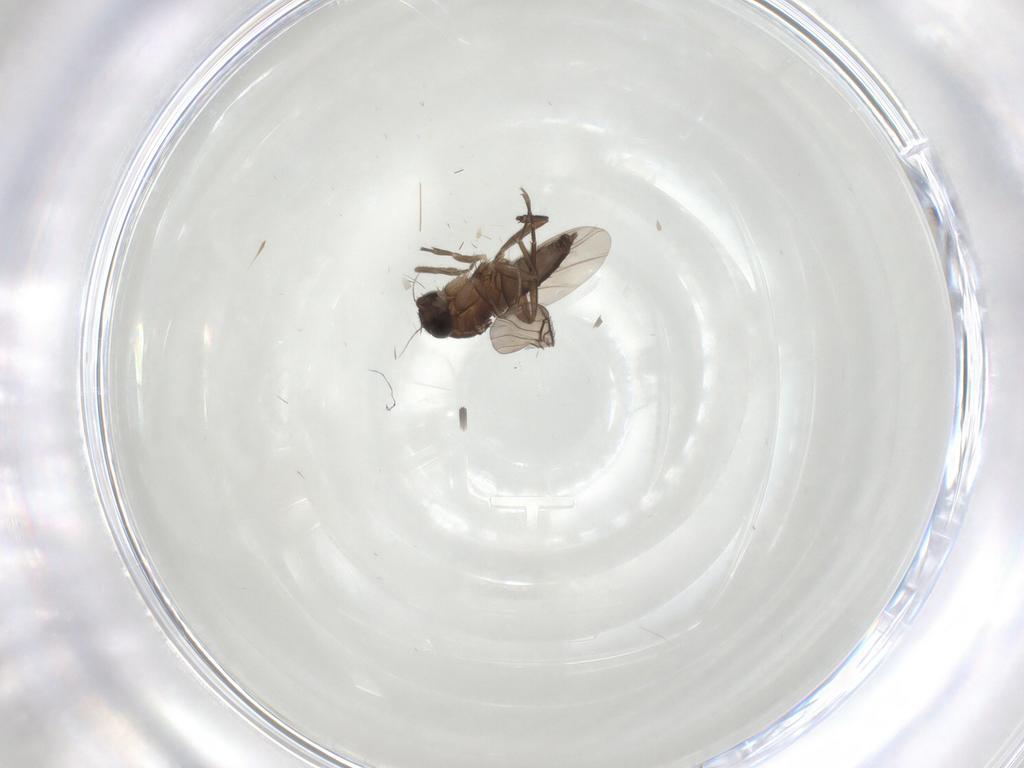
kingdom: Animalia
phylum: Arthropoda
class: Insecta
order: Diptera
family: Phoridae
